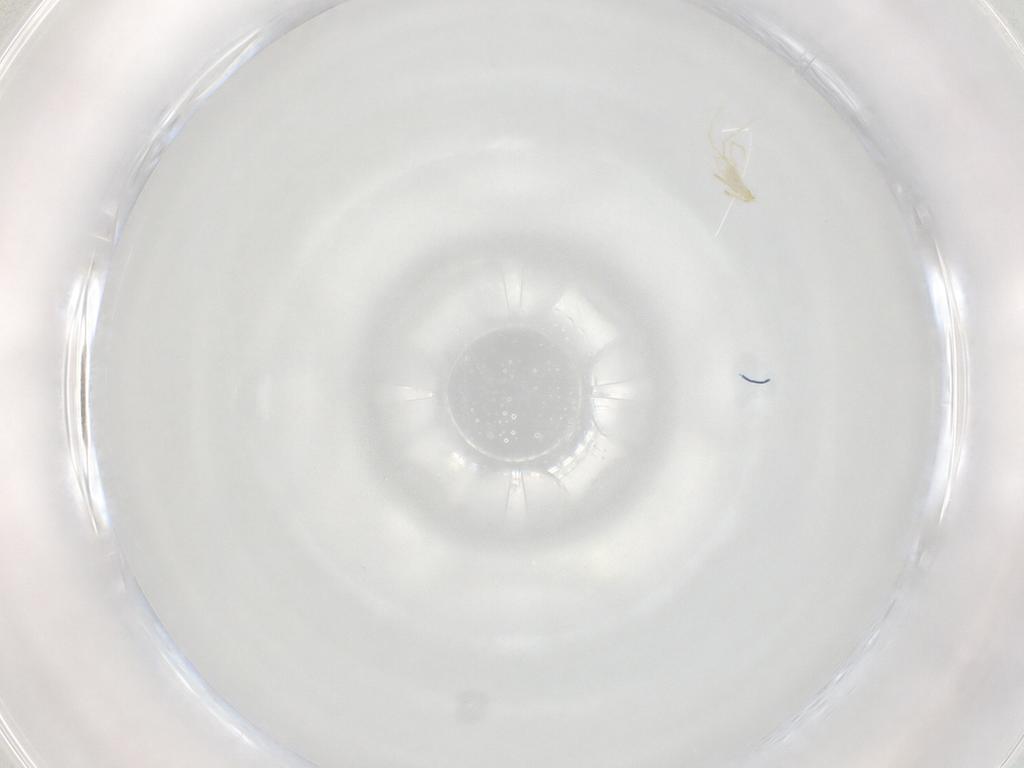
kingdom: Animalia
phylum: Arthropoda
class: Arachnida
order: Trombidiformes
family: Erythraeidae
